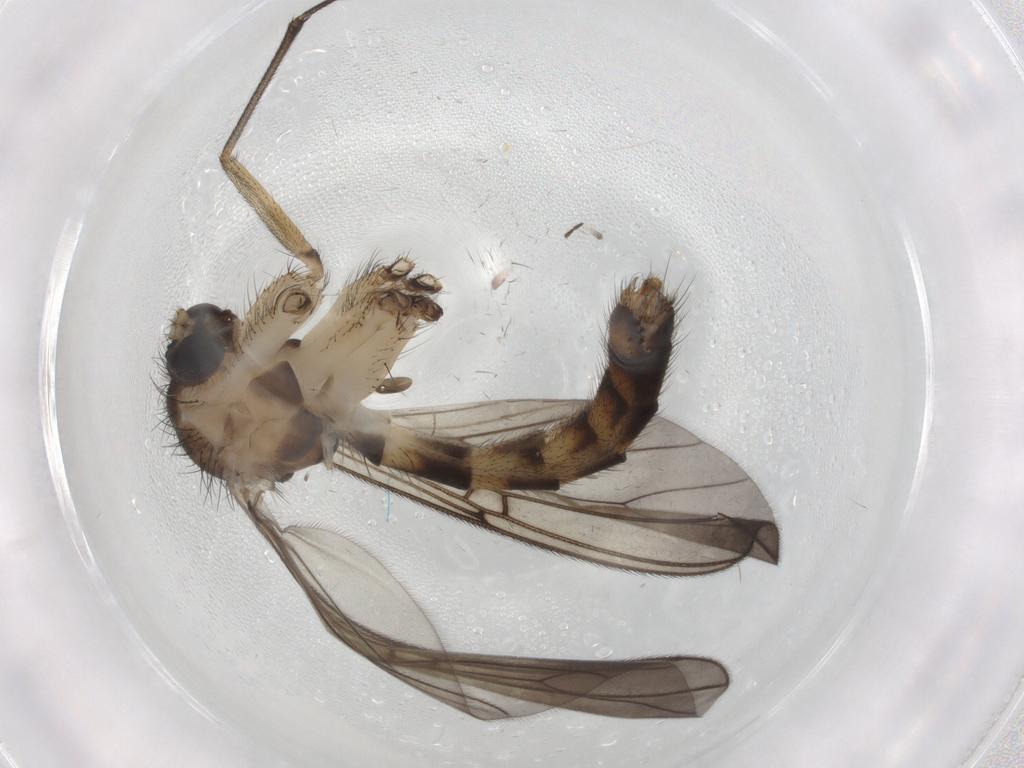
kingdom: Animalia
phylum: Arthropoda
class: Insecta
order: Diptera
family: Mycetophilidae
